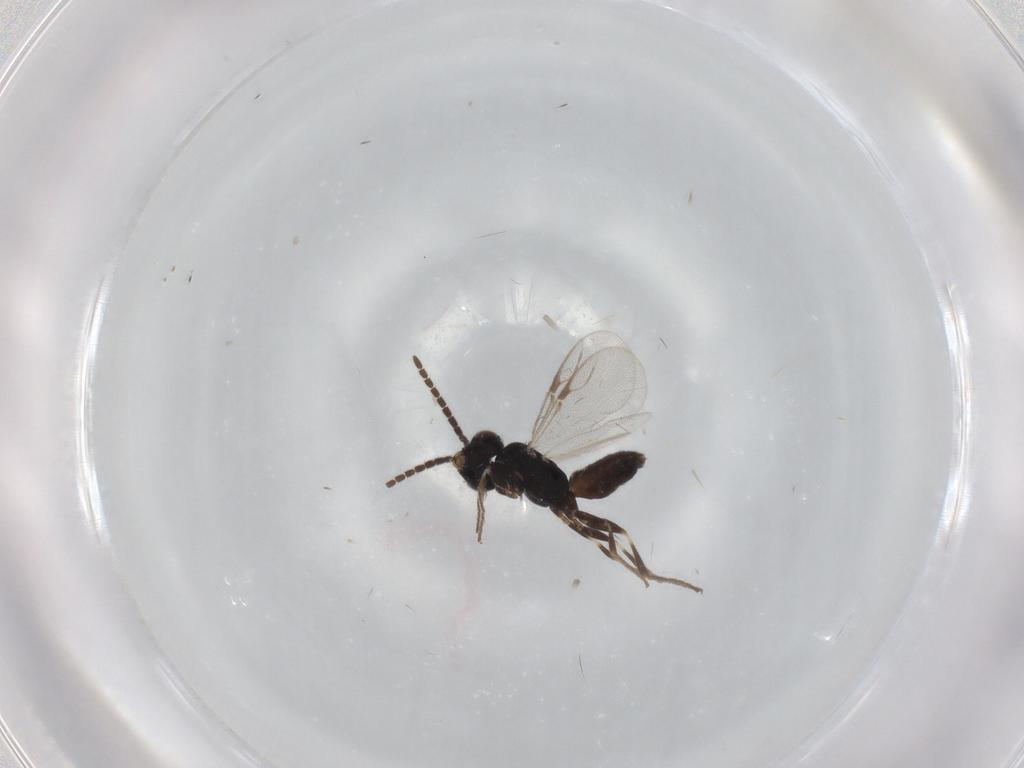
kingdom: Animalia
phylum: Arthropoda
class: Insecta
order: Hymenoptera
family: Dryinidae
